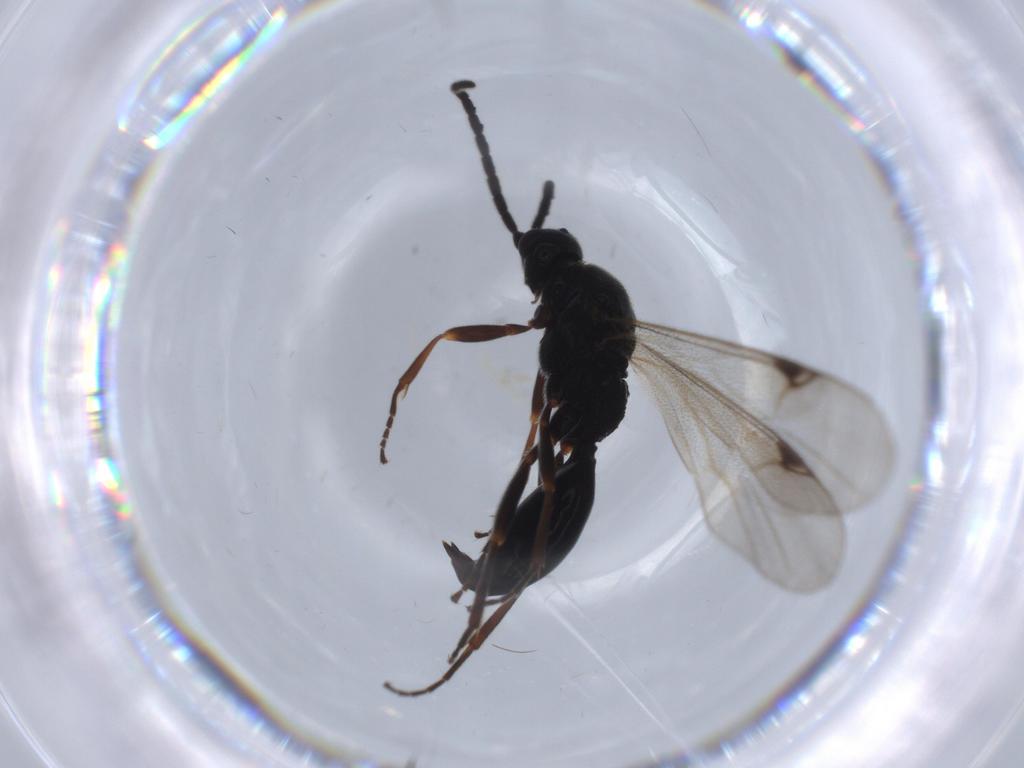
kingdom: Animalia
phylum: Arthropoda
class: Insecta
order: Hymenoptera
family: Proctotrupidae
